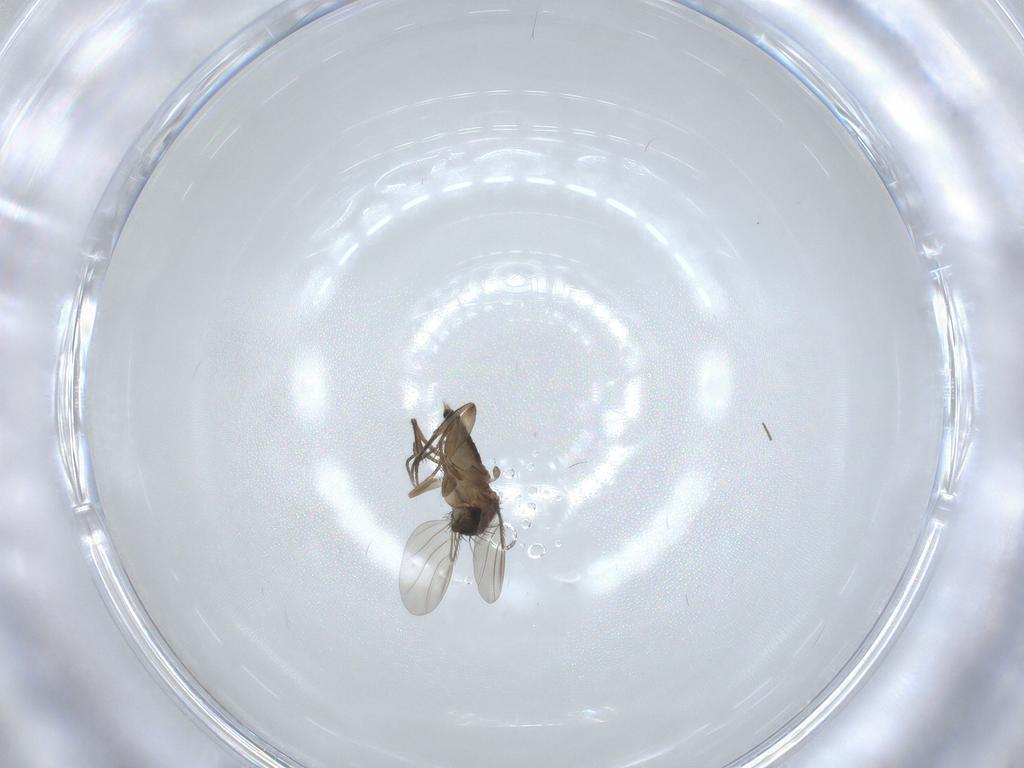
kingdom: Animalia
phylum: Arthropoda
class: Insecta
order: Diptera
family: Phoridae
